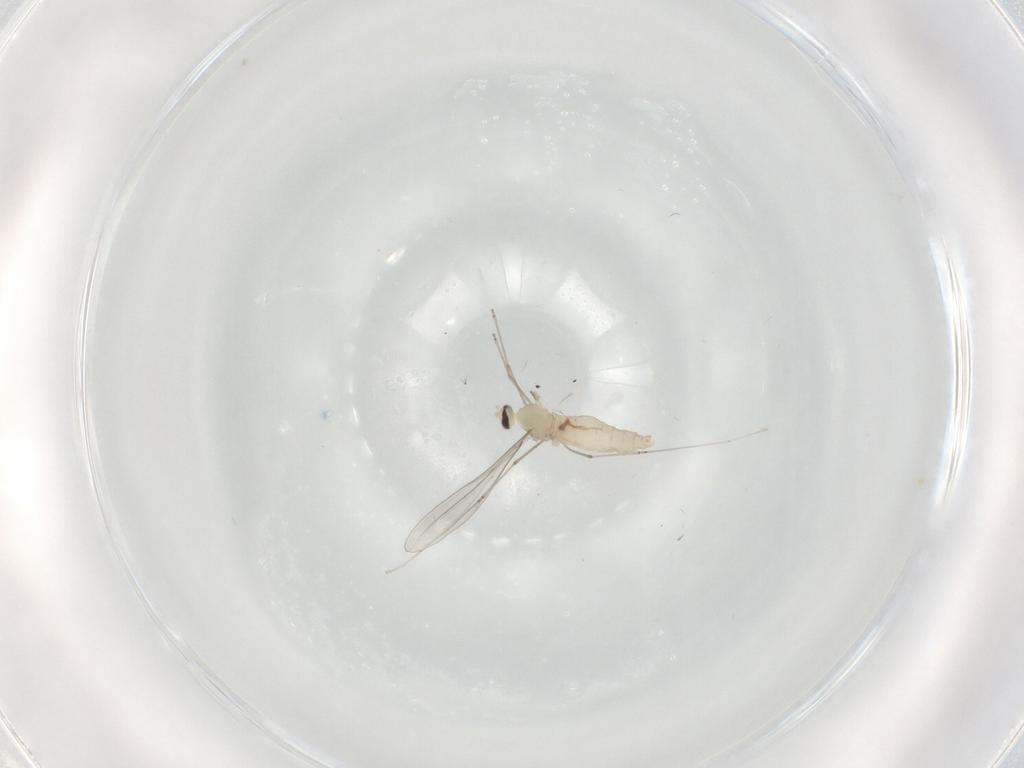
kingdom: Animalia
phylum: Arthropoda
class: Insecta
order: Diptera
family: Cecidomyiidae
